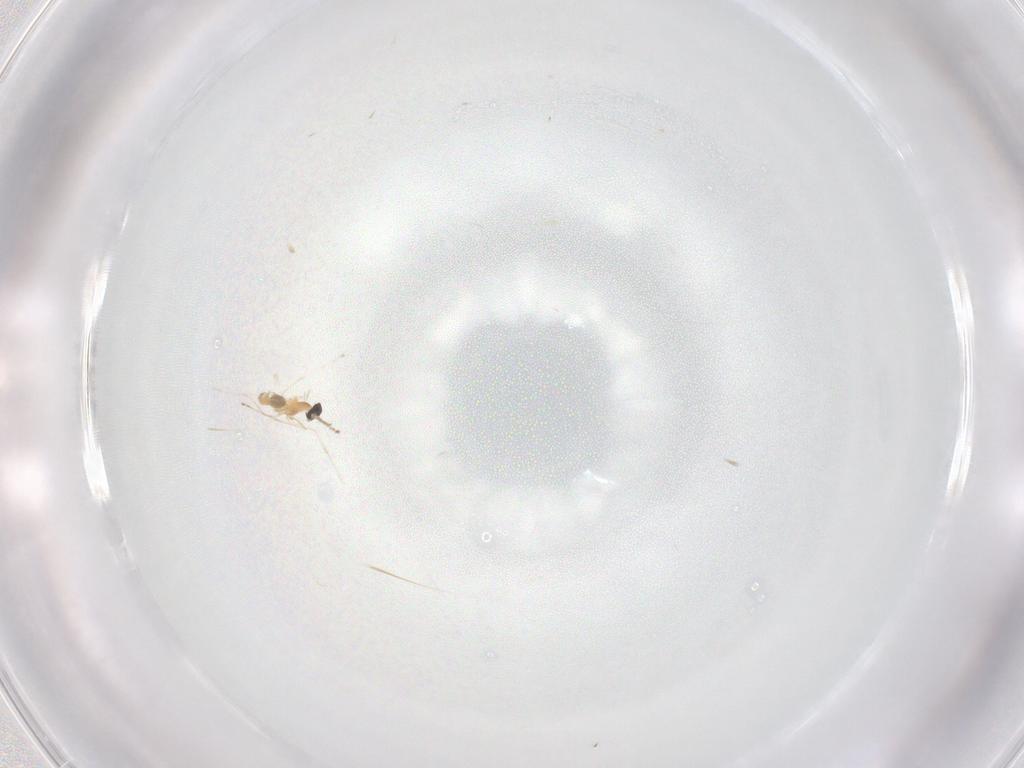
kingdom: Animalia
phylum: Arthropoda
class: Insecta
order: Diptera
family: Cecidomyiidae
